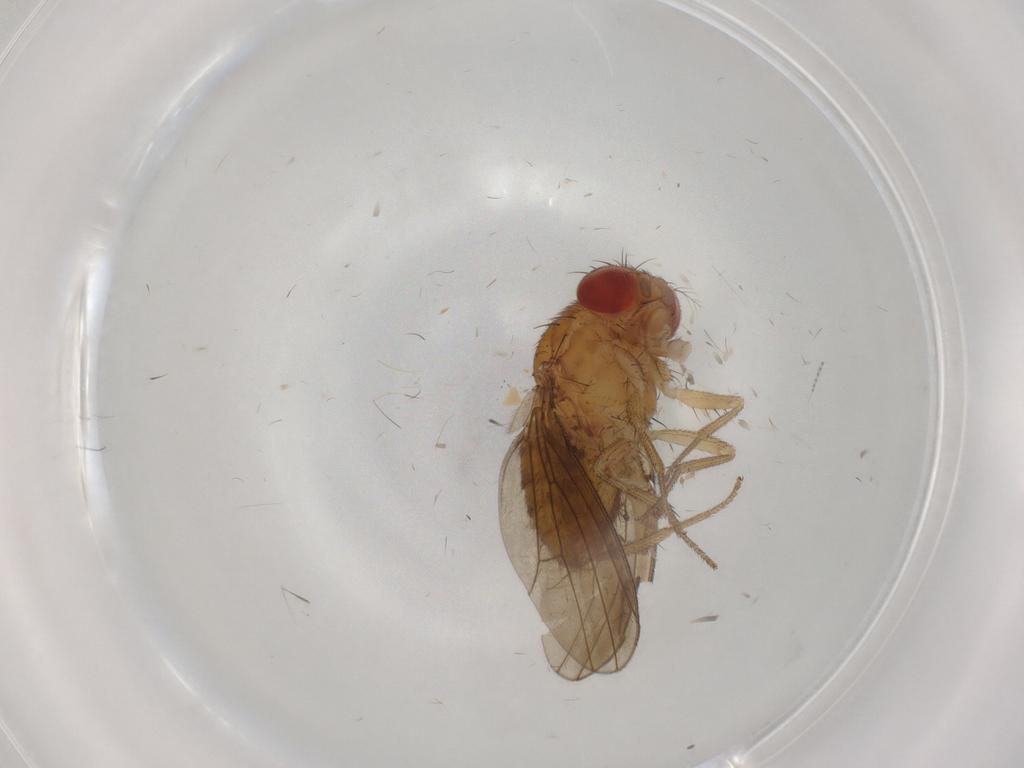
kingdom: Animalia
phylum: Arthropoda
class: Insecta
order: Diptera
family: Drosophilidae
